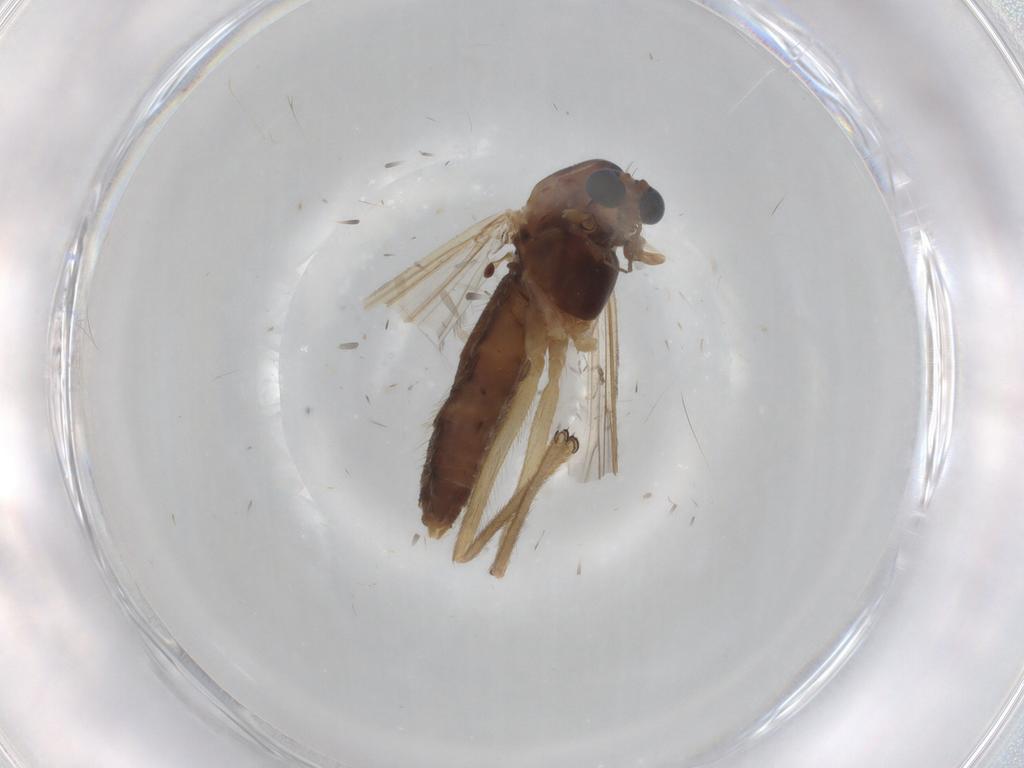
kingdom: Animalia
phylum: Arthropoda
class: Insecta
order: Diptera
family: Chironomidae
